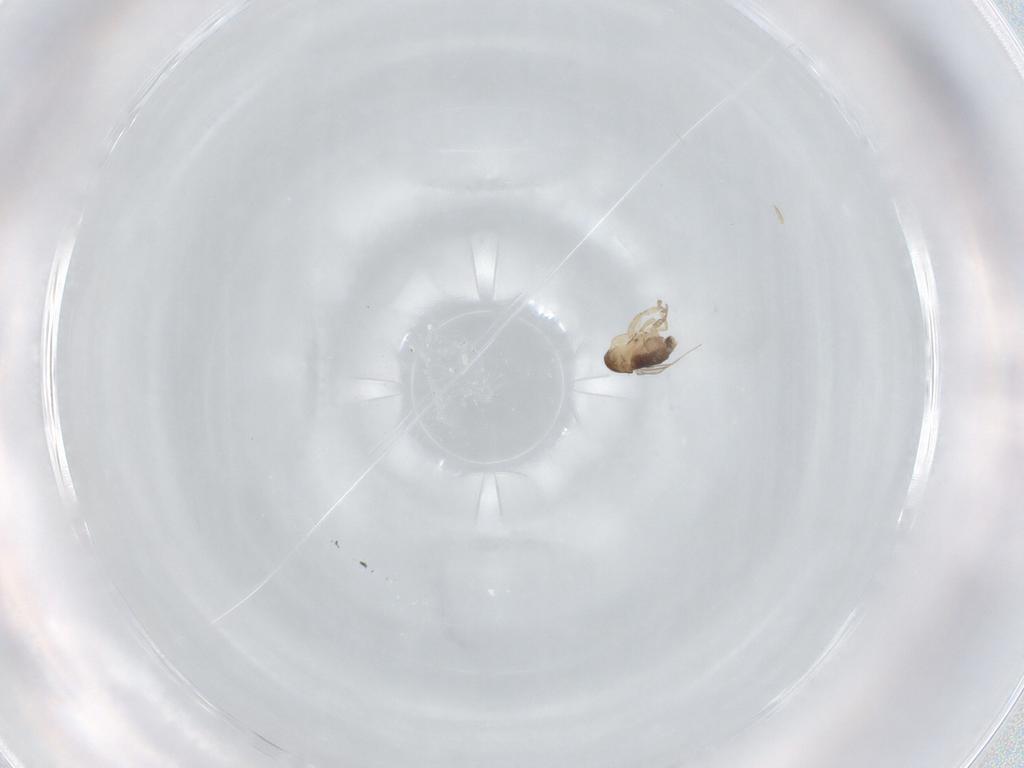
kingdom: Animalia
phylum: Arthropoda
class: Insecta
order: Diptera
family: Phoridae
